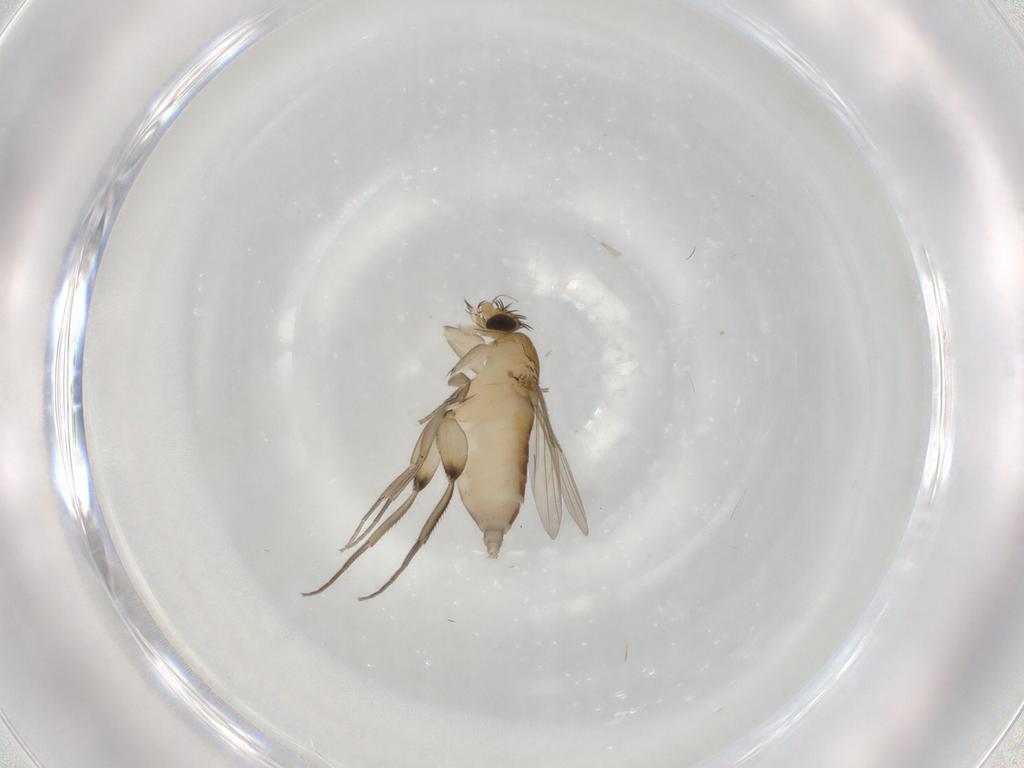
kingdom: Animalia
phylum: Arthropoda
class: Insecta
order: Diptera
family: Phoridae
